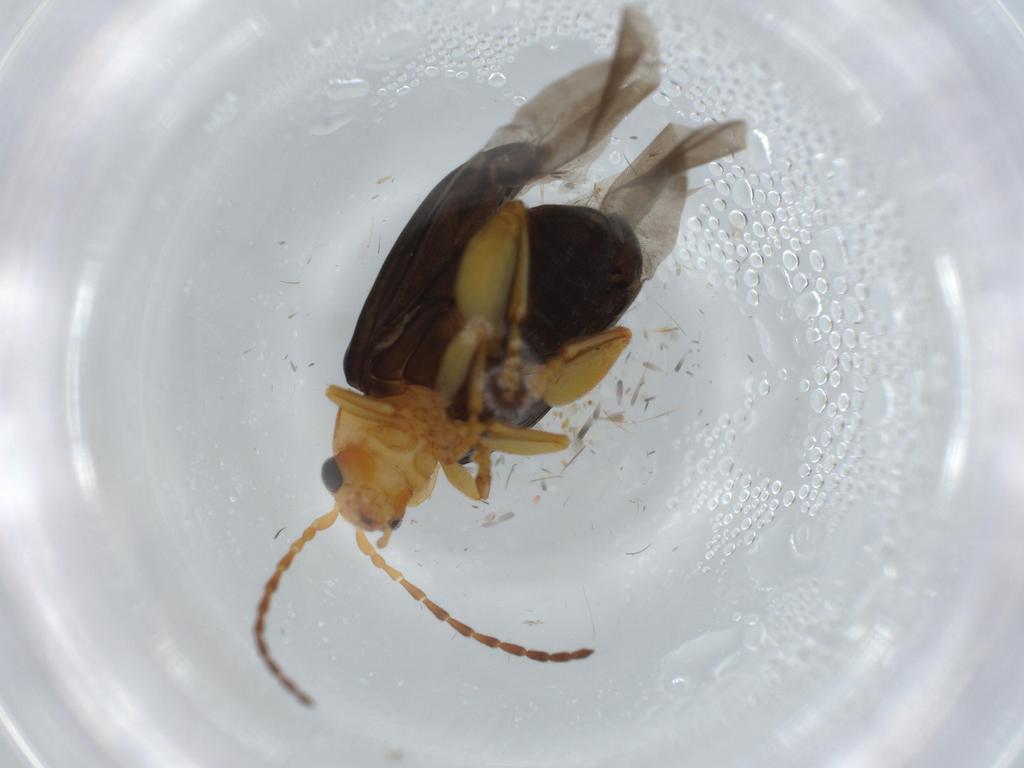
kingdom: Animalia
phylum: Arthropoda
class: Insecta
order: Coleoptera
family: Chrysomelidae
